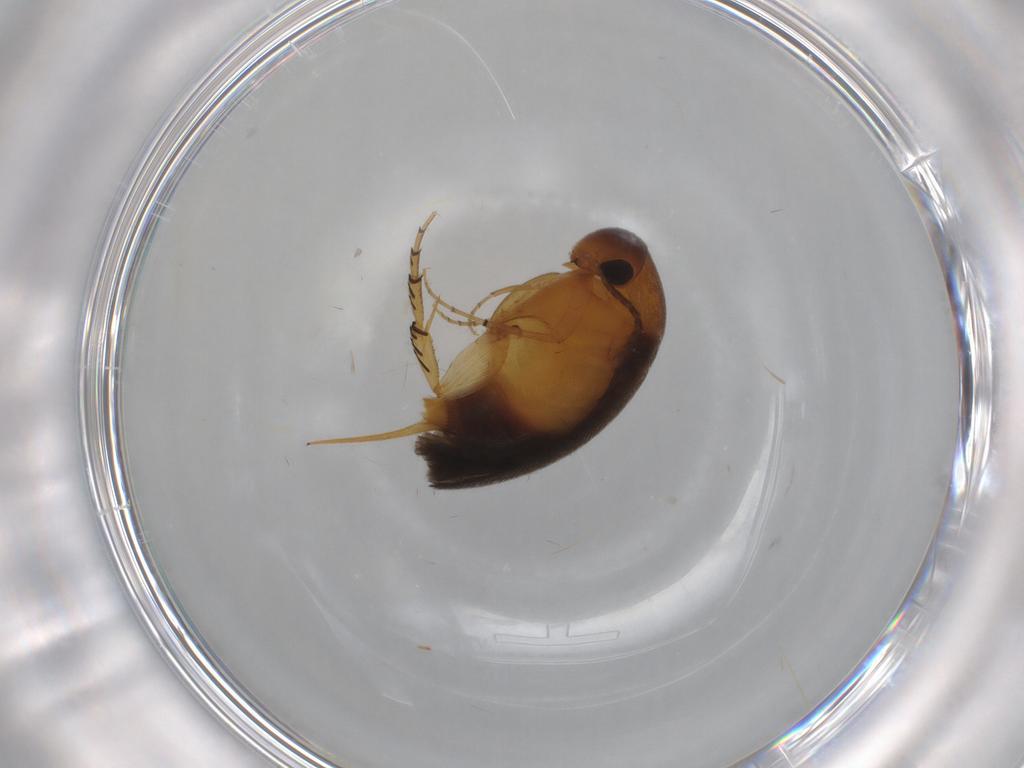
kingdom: Animalia
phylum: Arthropoda
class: Insecta
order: Coleoptera
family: Mordellidae
